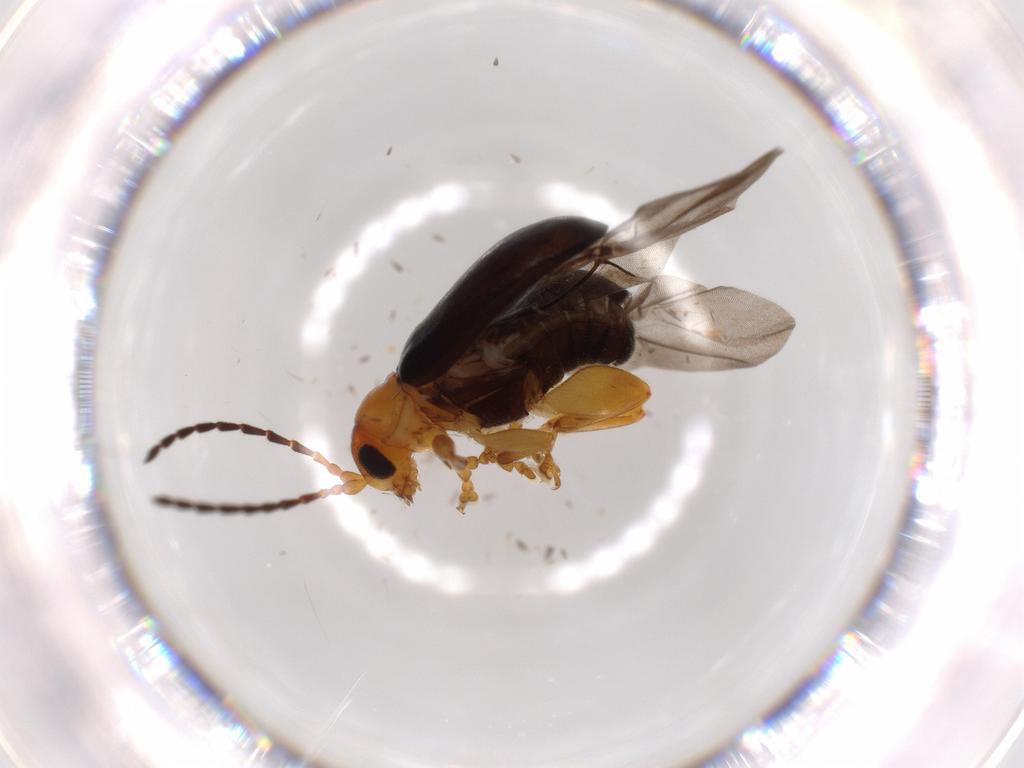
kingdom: Animalia
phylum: Arthropoda
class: Insecta
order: Coleoptera
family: Chrysomelidae
